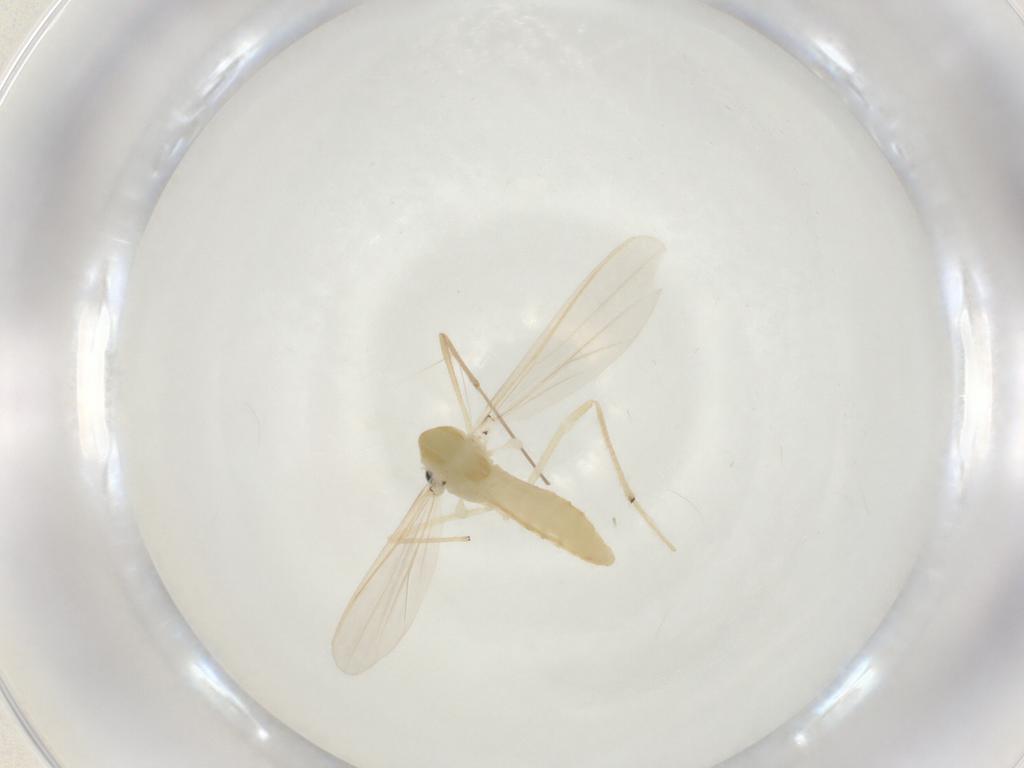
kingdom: Animalia
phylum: Arthropoda
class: Insecta
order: Diptera
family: Chironomidae
